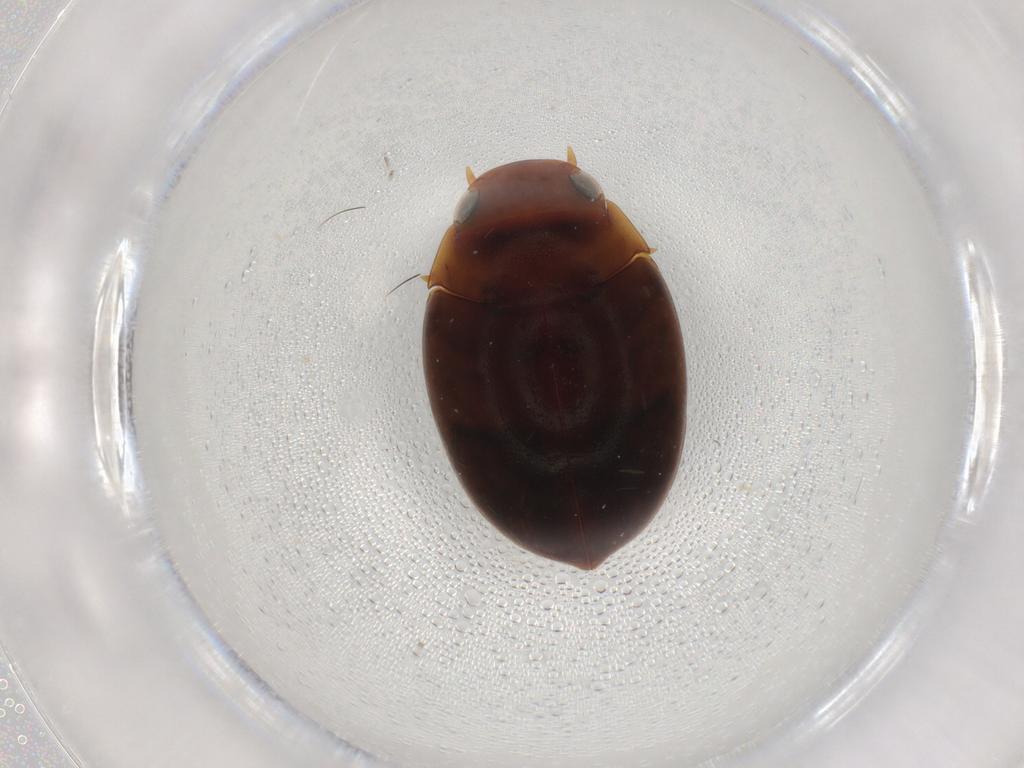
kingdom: Animalia
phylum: Arthropoda
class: Insecta
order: Coleoptera
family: Dytiscidae
